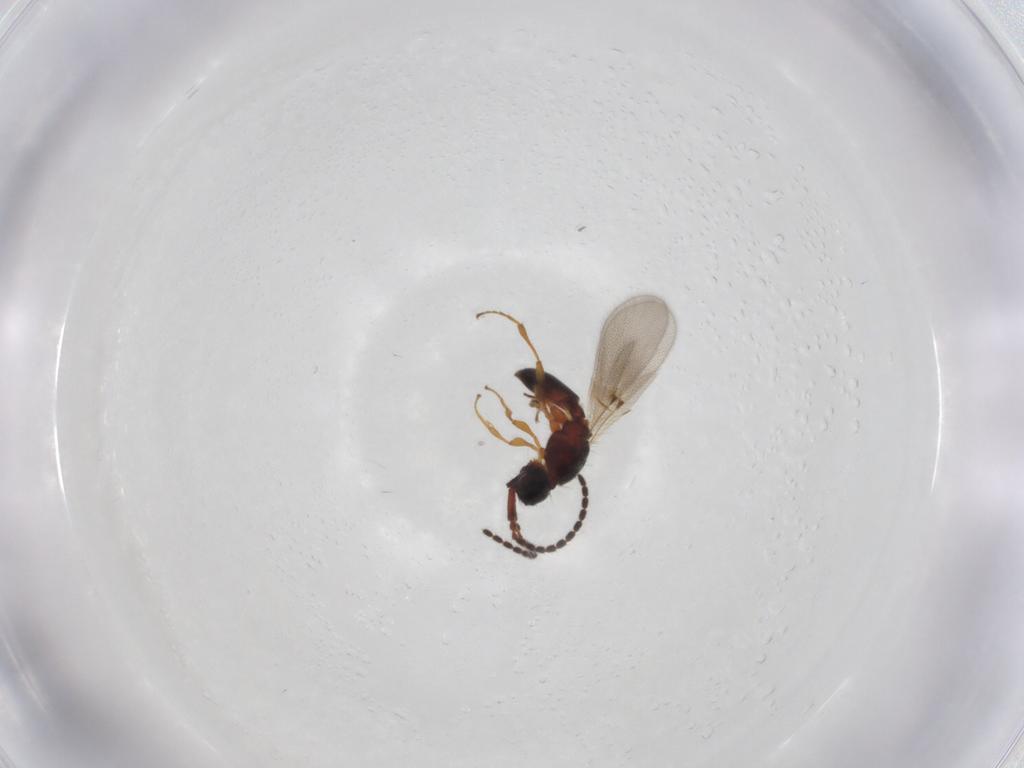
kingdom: Animalia
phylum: Arthropoda
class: Insecta
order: Hymenoptera
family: Diapriidae
